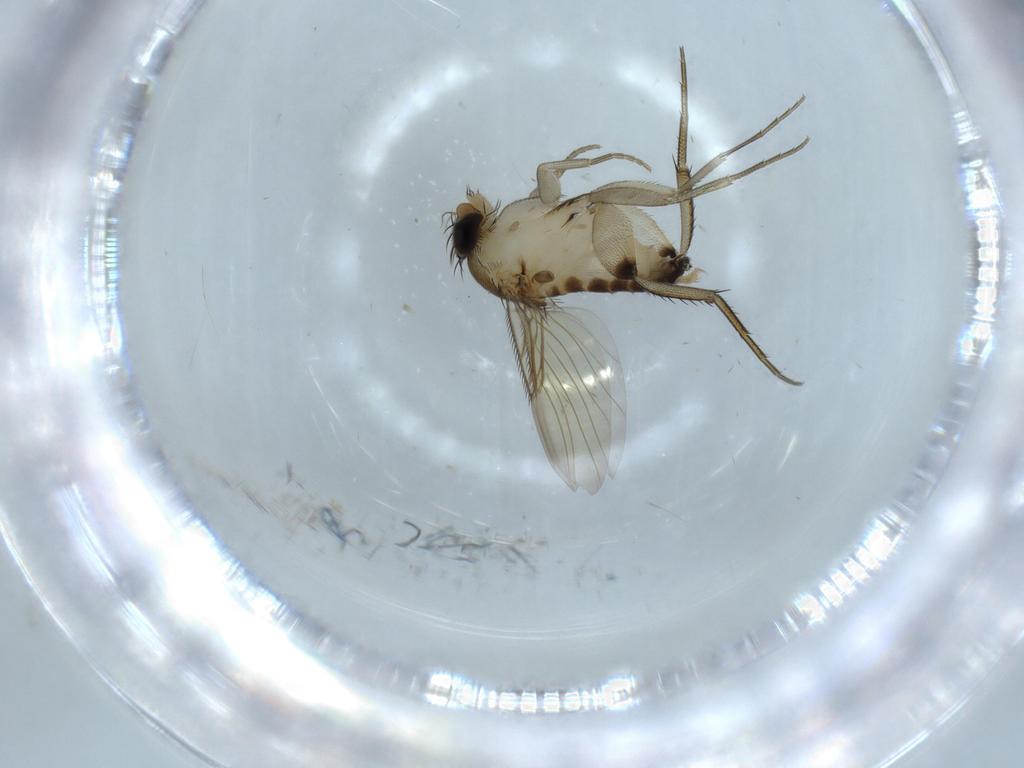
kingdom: Animalia
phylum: Arthropoda
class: Insecta
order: Diptera
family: Phoridae
